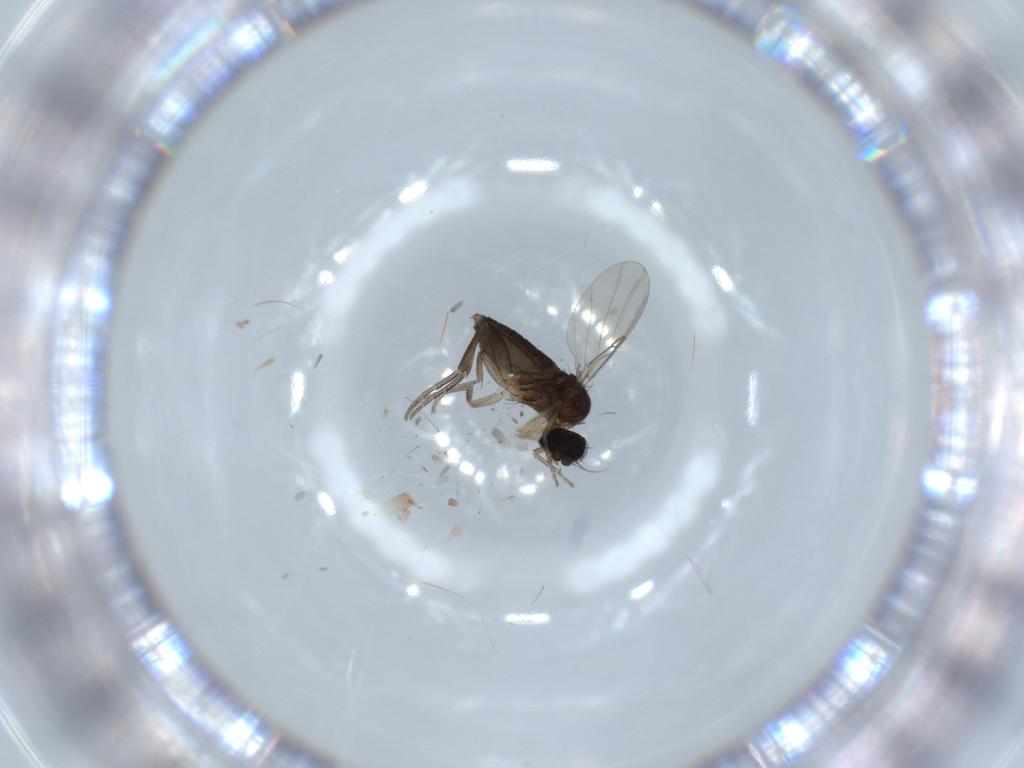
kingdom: Animalia
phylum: Arthropoda
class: Insecta
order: Diptera
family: Phoridae
